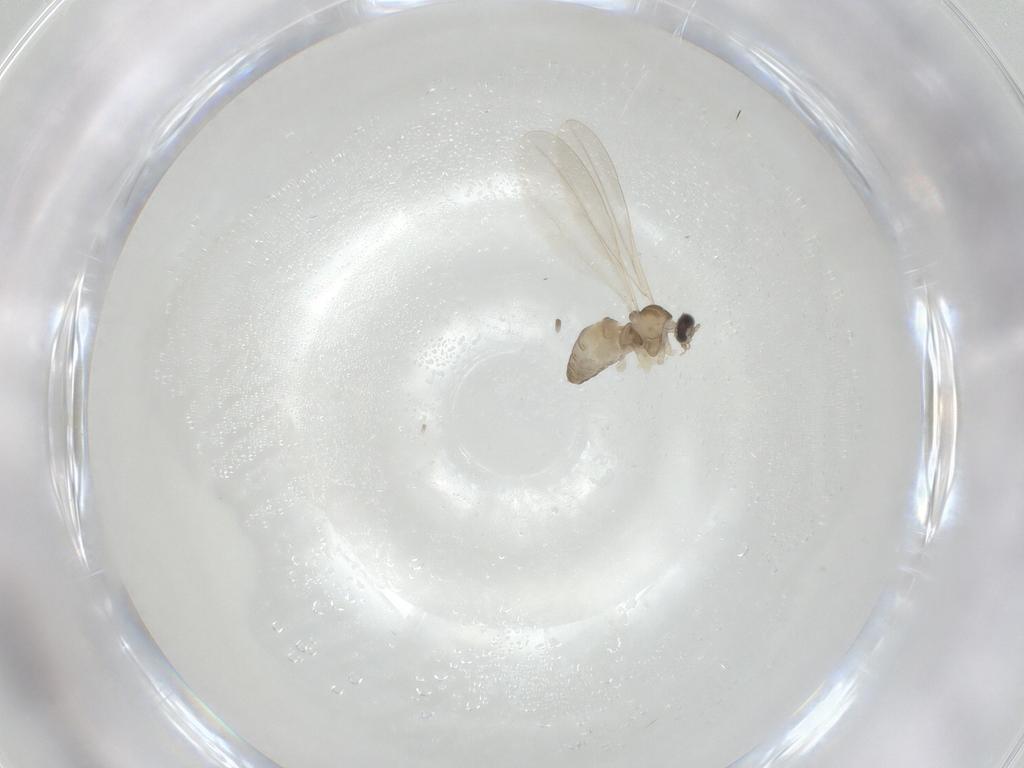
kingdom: Animalia
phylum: Arthropoda
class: Insecta
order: Diptera
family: Cecidomyiidae
